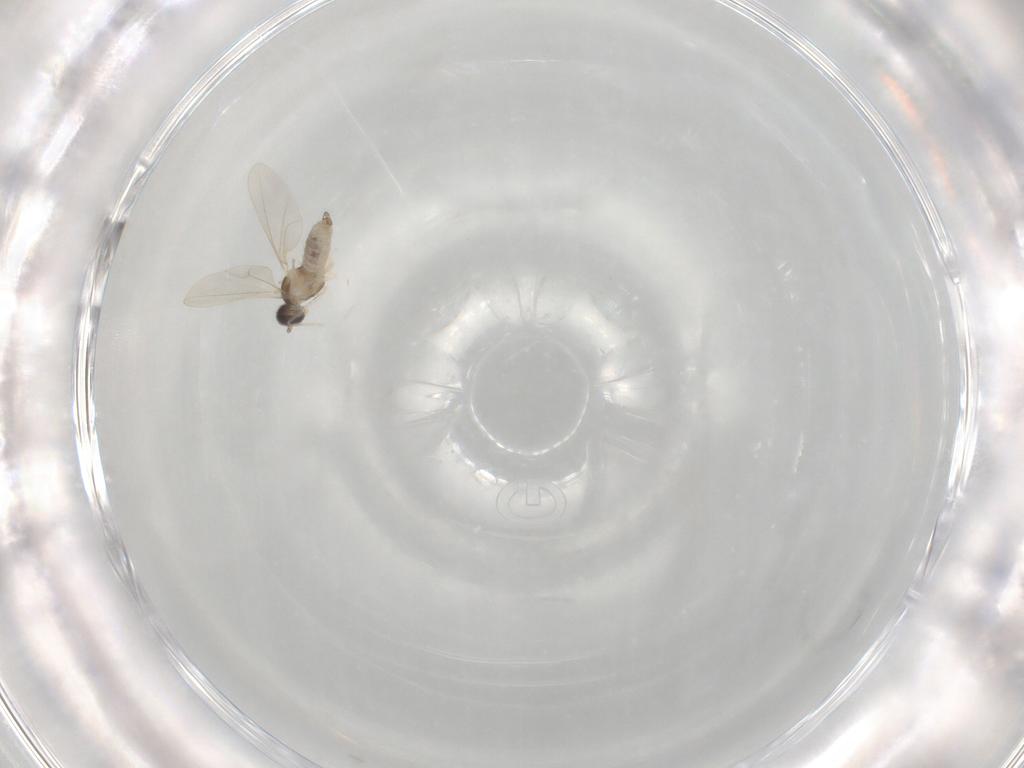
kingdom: Animalia
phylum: Arthropoda
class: Insecta
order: Diptera
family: Chironomidae
